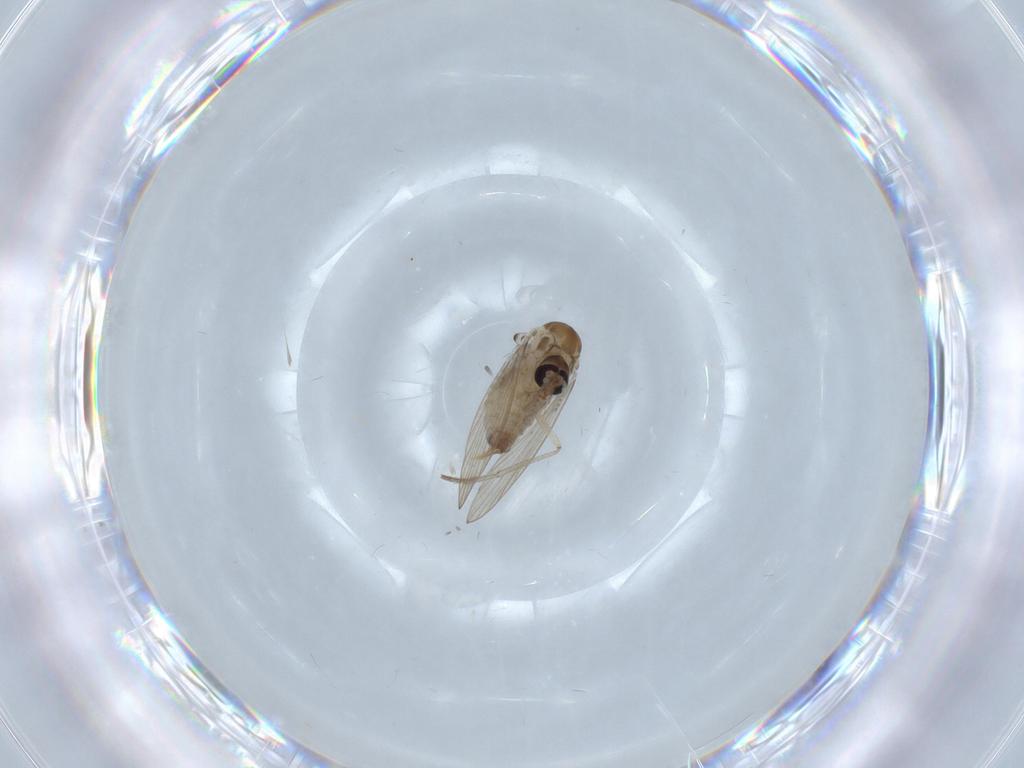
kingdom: Animalia
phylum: Arthropoda
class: Insecta
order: Diptera
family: Psychodidae
